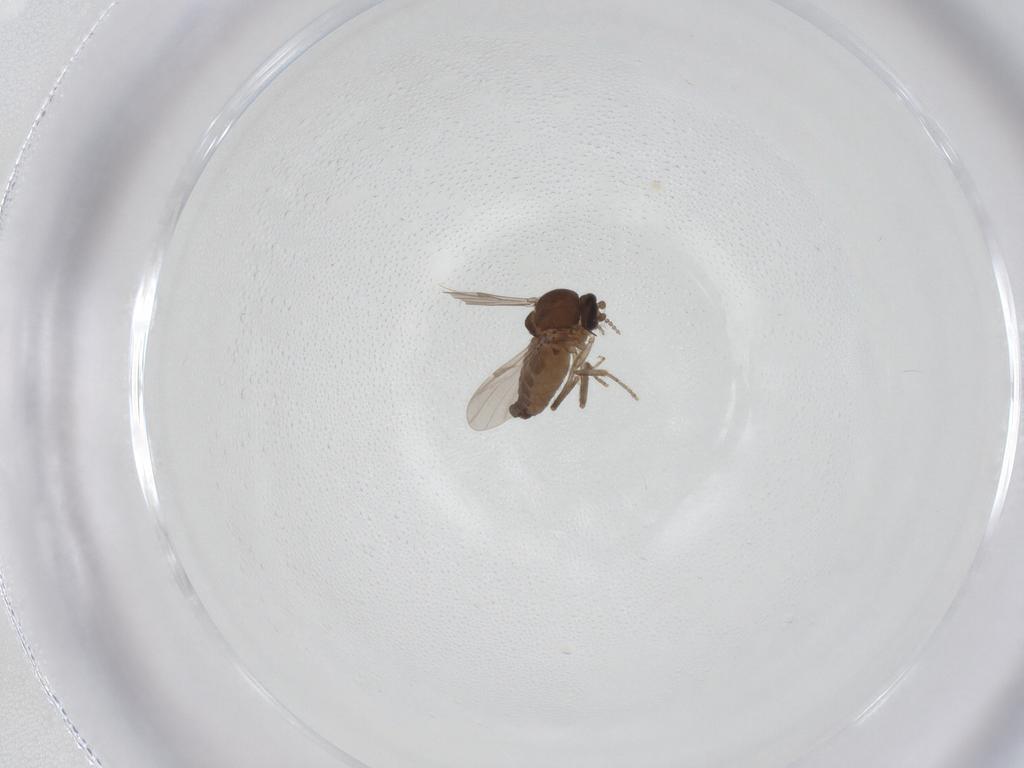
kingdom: Animalia
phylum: Arthropoda
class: Insecta
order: Diptera
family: Ceratopogonidae
